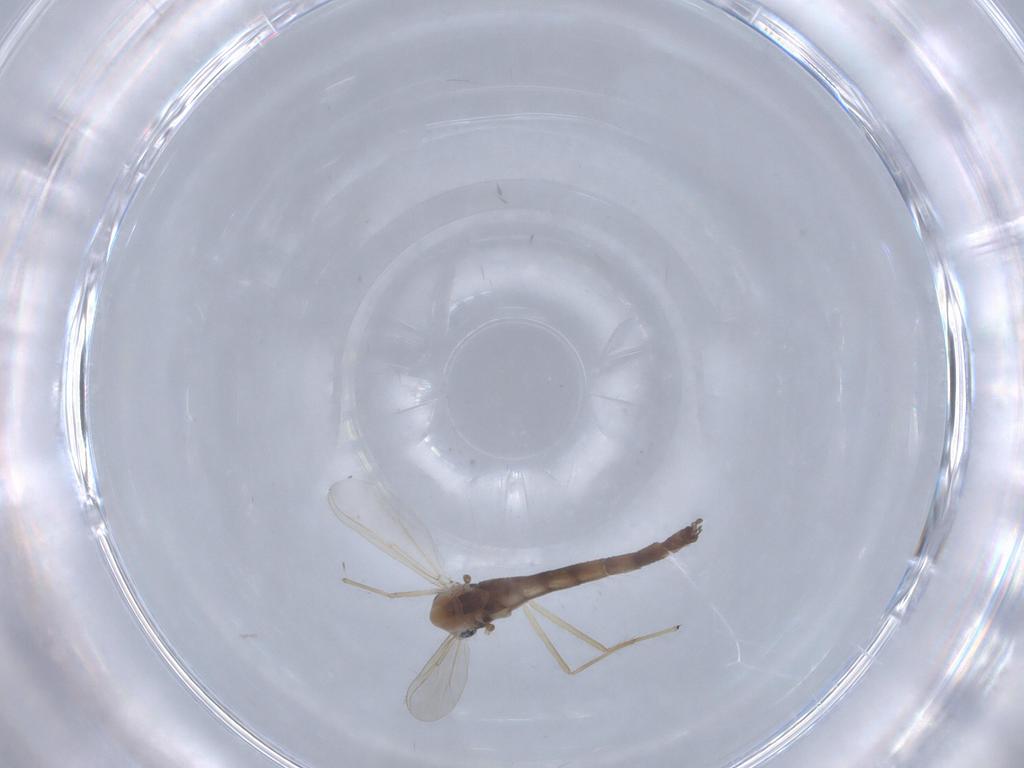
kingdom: Animalia
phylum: Arthropoda
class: Insecta
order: Diptera
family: Chironomidae
